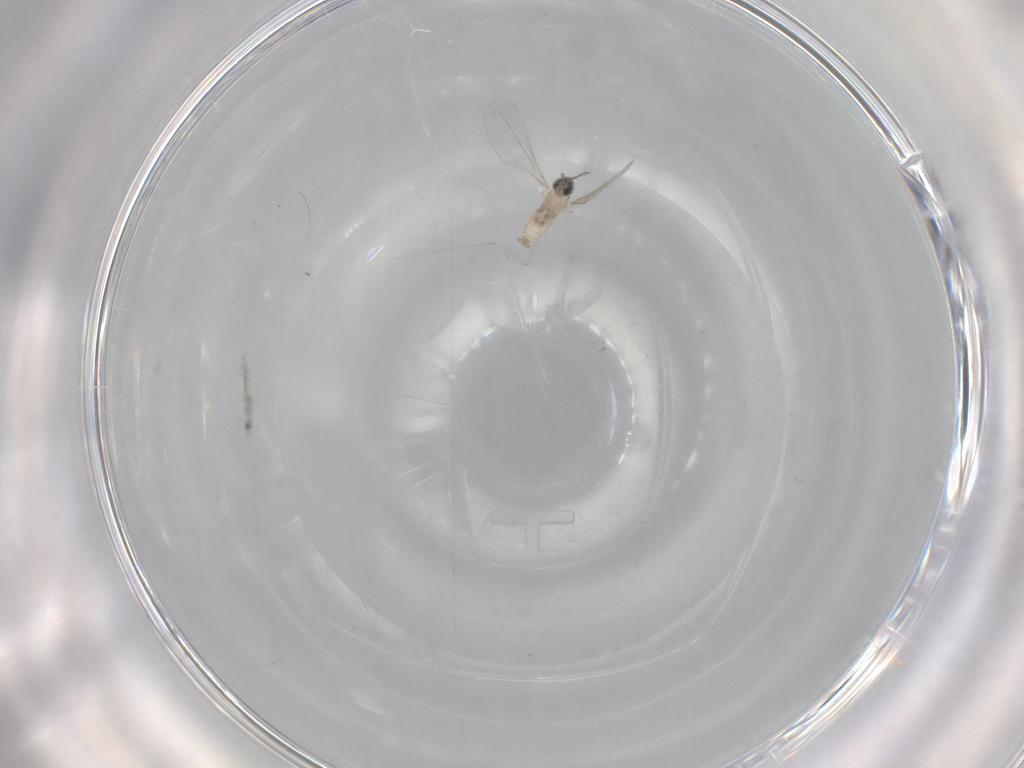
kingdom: Animalia
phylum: Arthropoda
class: Insecta
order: Diptera
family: Cecidomyiidae
